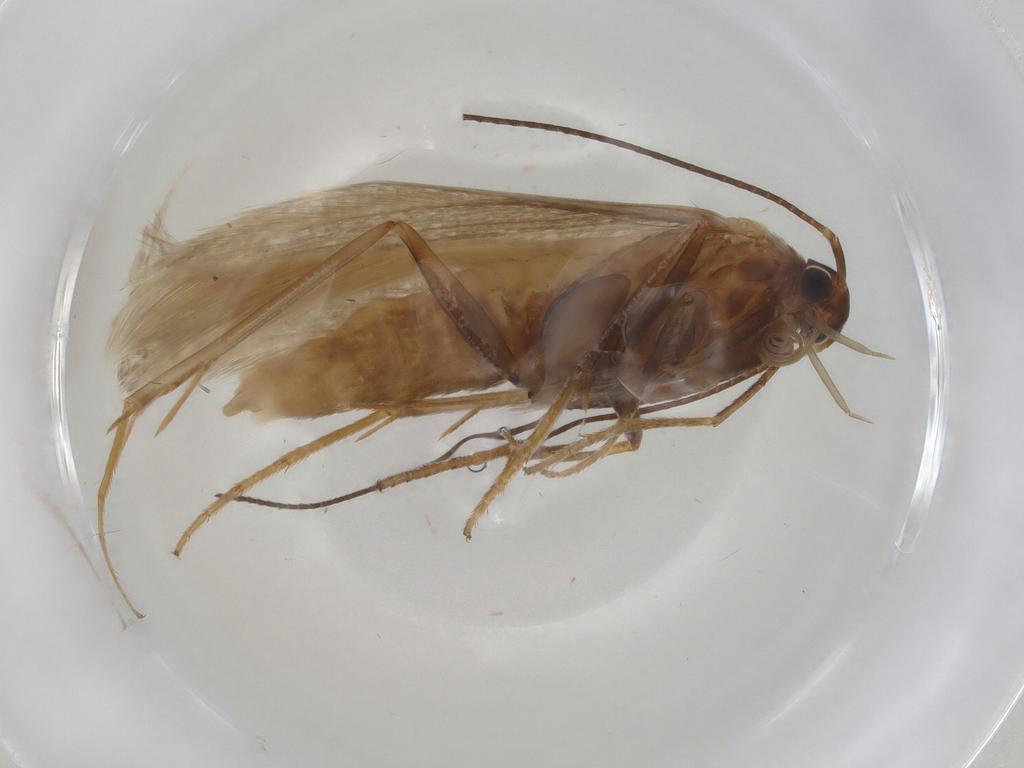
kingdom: Animalia
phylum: Arthropoda
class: Insecta
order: Lepidoptera
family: Coleophoridae
